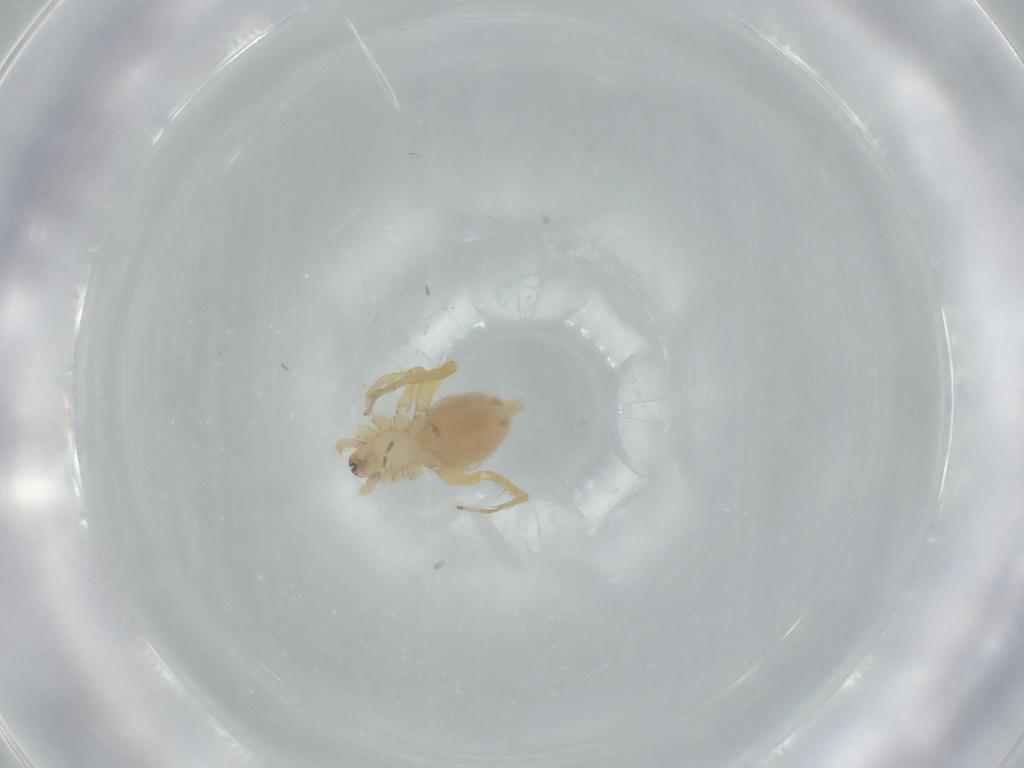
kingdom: Animalia
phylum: Arthropoda
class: Arachnida
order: Araneae
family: Oonopidae
